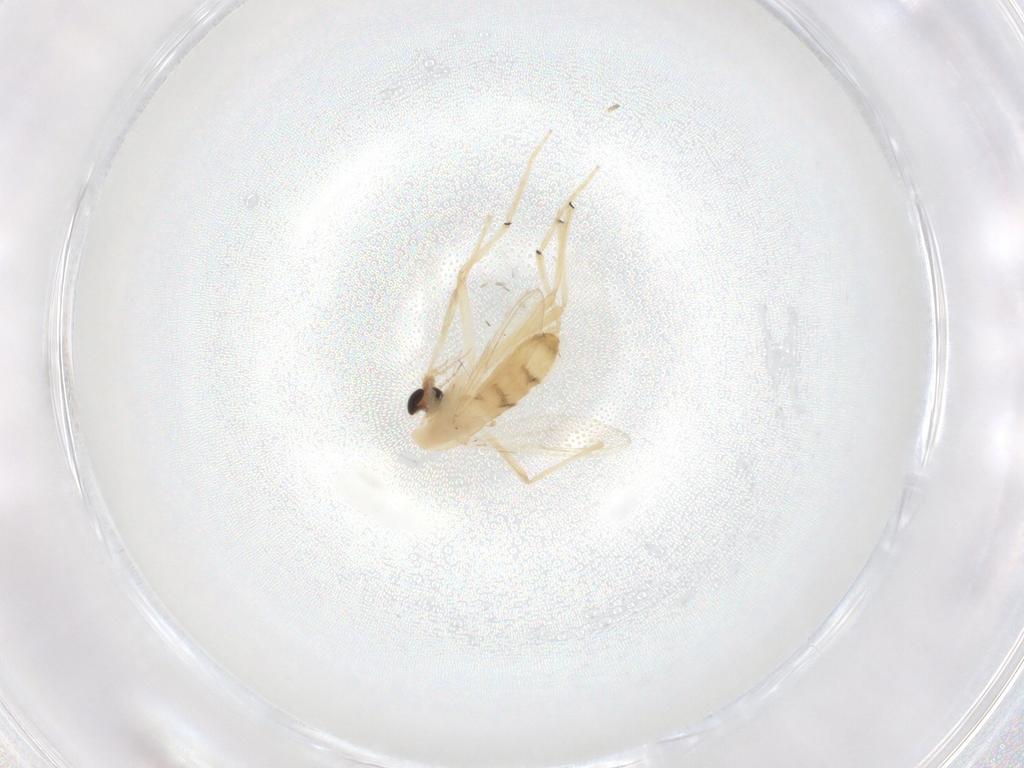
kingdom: Animalia
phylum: Arthropoda
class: Insecta
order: Diptera
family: Chironomidae
